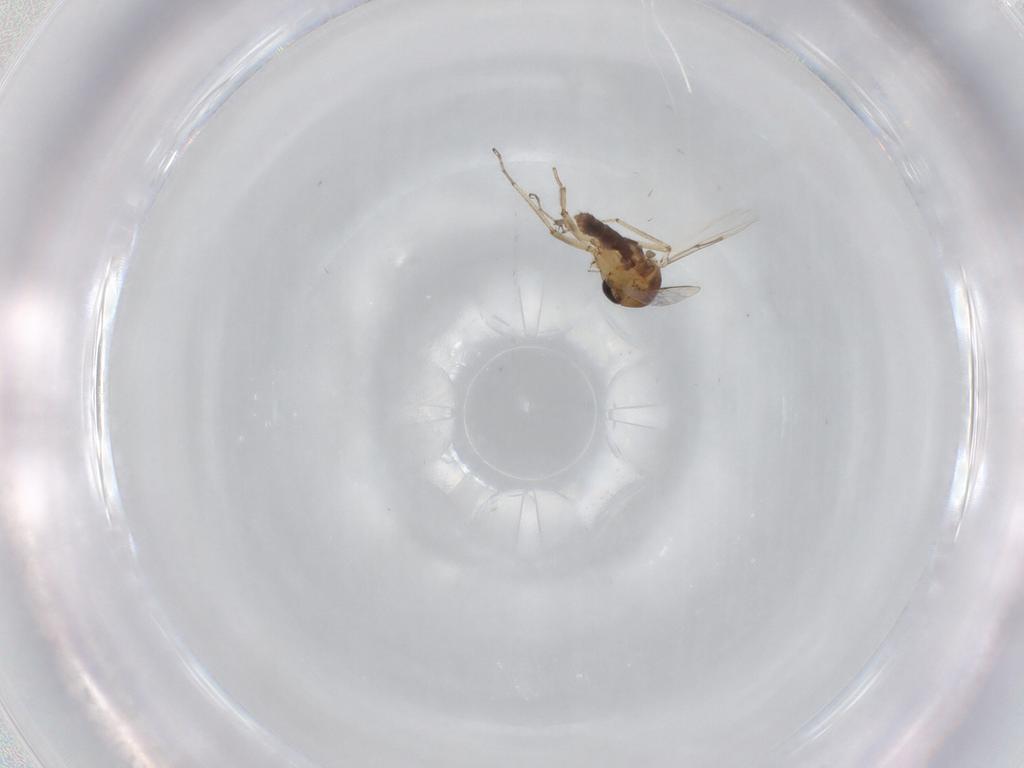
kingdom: Animalia
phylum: Arthropoda
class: Insecta
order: Diptera
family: Ceratopogonidae
